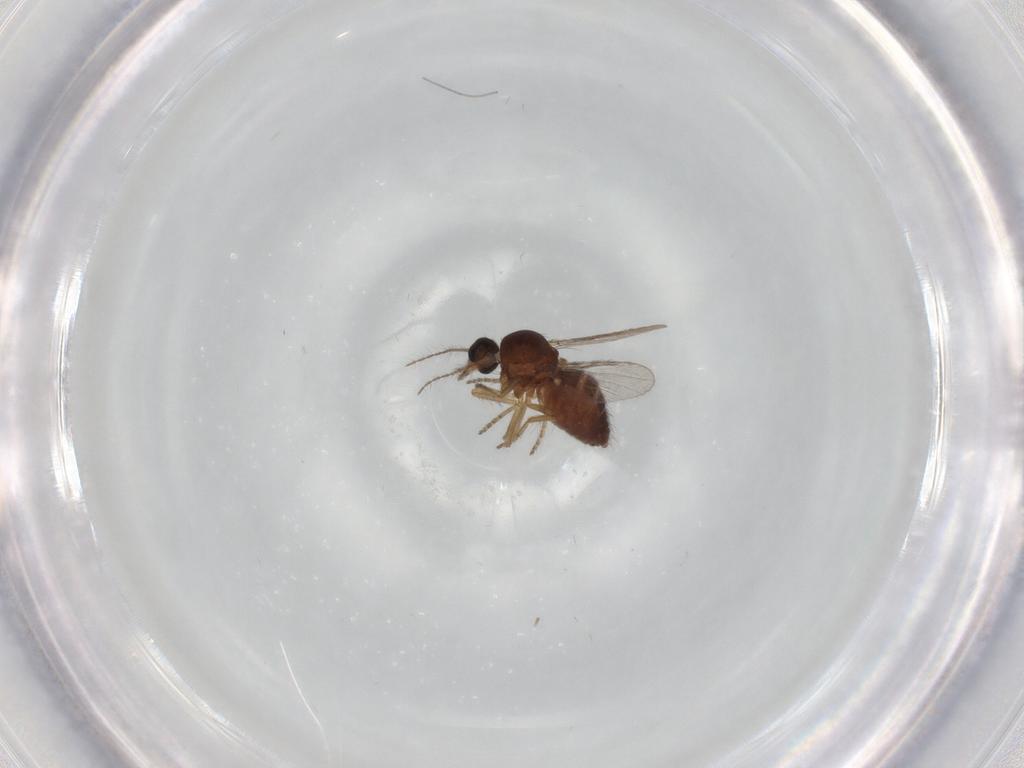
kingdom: Animalia
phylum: Arthropoda
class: Insecta
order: Diptera
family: Ceratopogonidae
